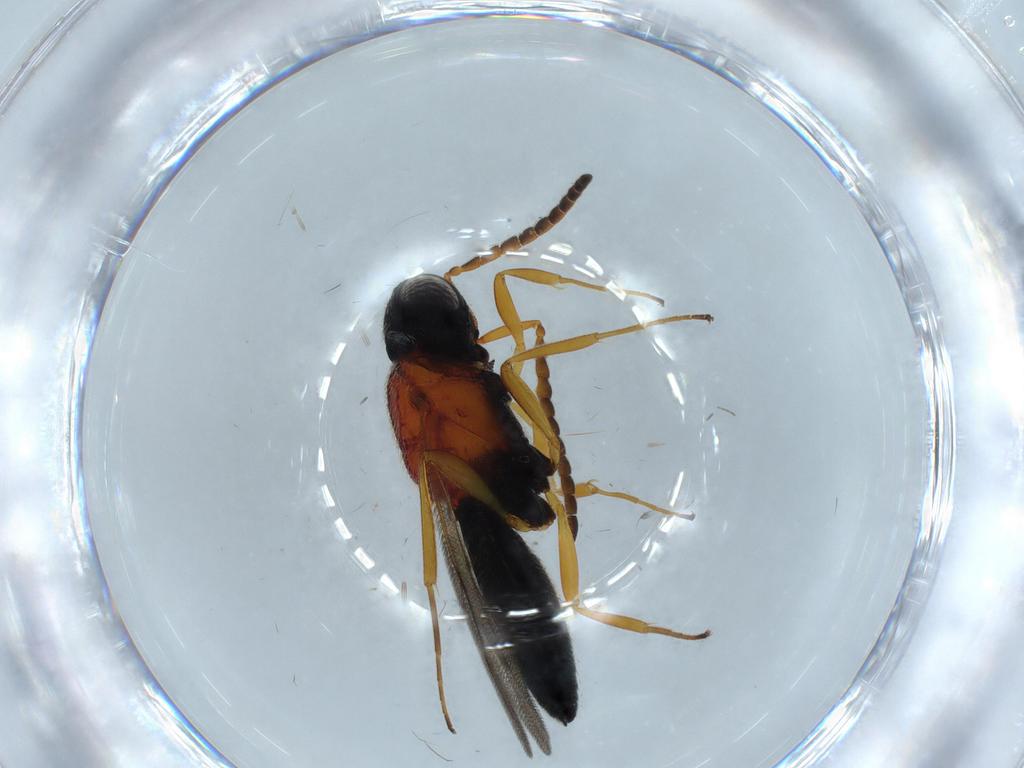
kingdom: Animalia
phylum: Arthropoda
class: Insecta
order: Hymenoptera
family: Scelionidae
